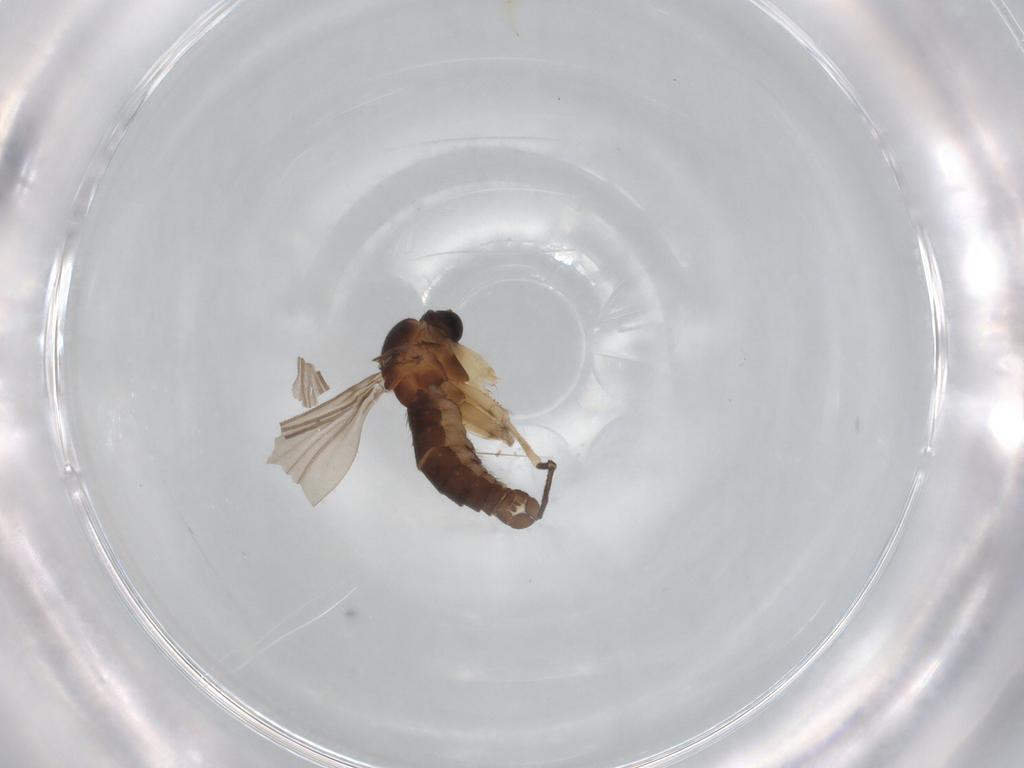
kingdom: Animalia
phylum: Arthropoda
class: Insecta
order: Diptera
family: Sciaridae
